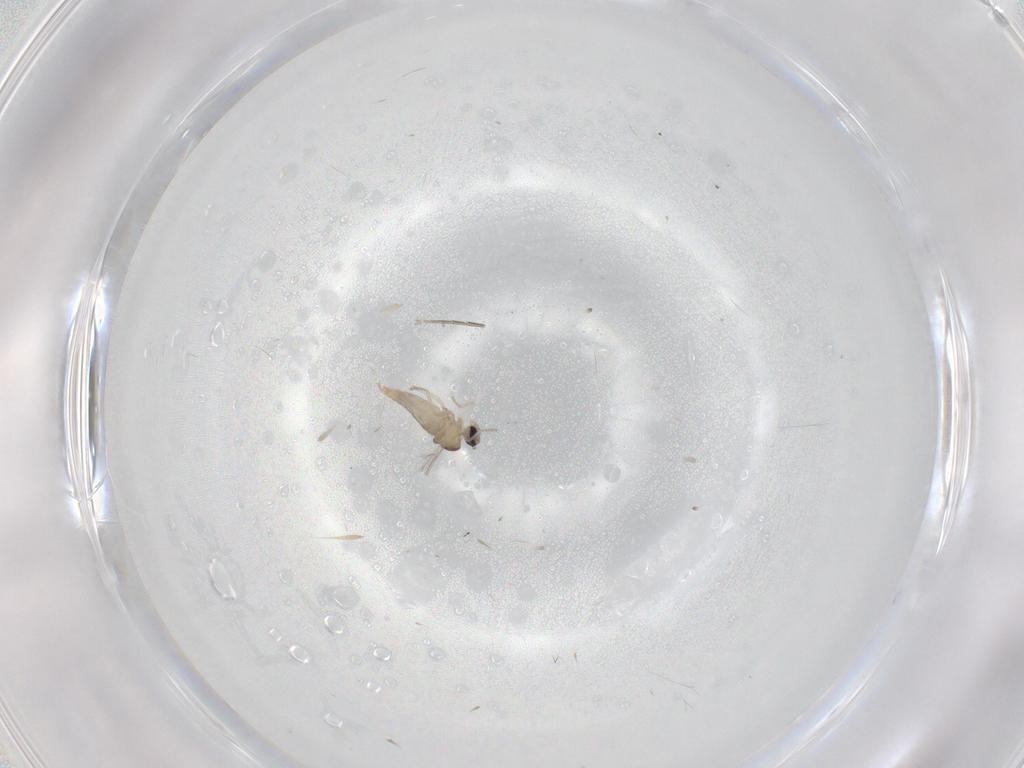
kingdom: Animalia
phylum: Arthropoda
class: Insecta
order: Diptera
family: Cecidomyiidae
